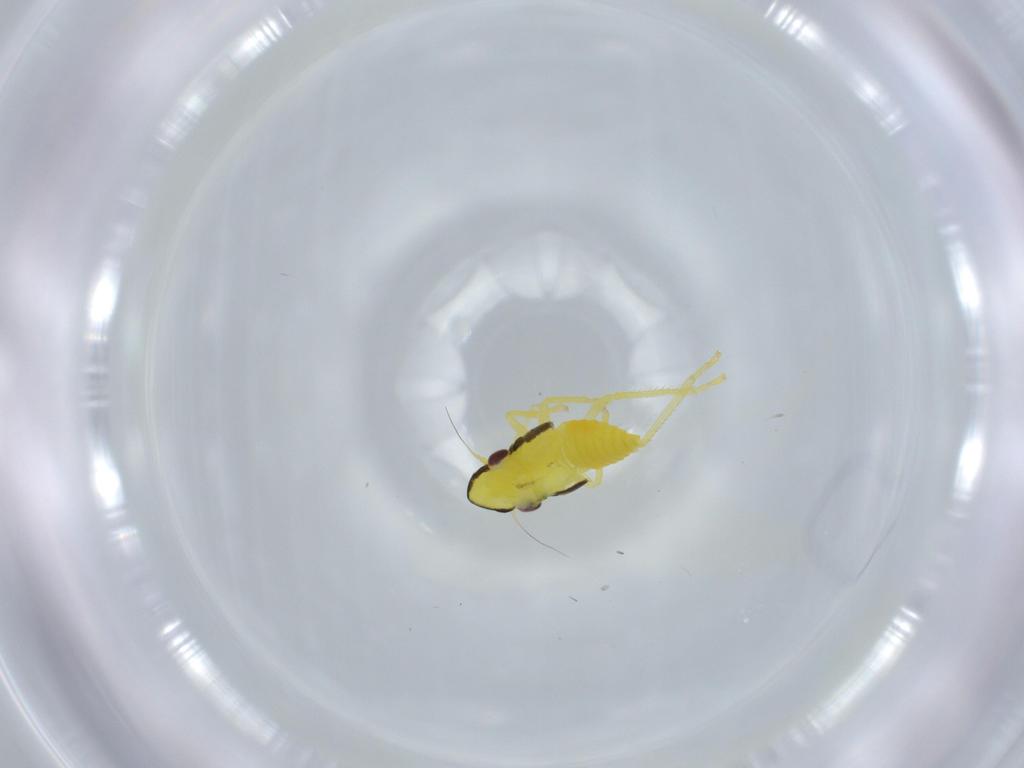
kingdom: Animalia
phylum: Arthropoda
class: Insecta
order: Hemiptera
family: Cicadellidae
